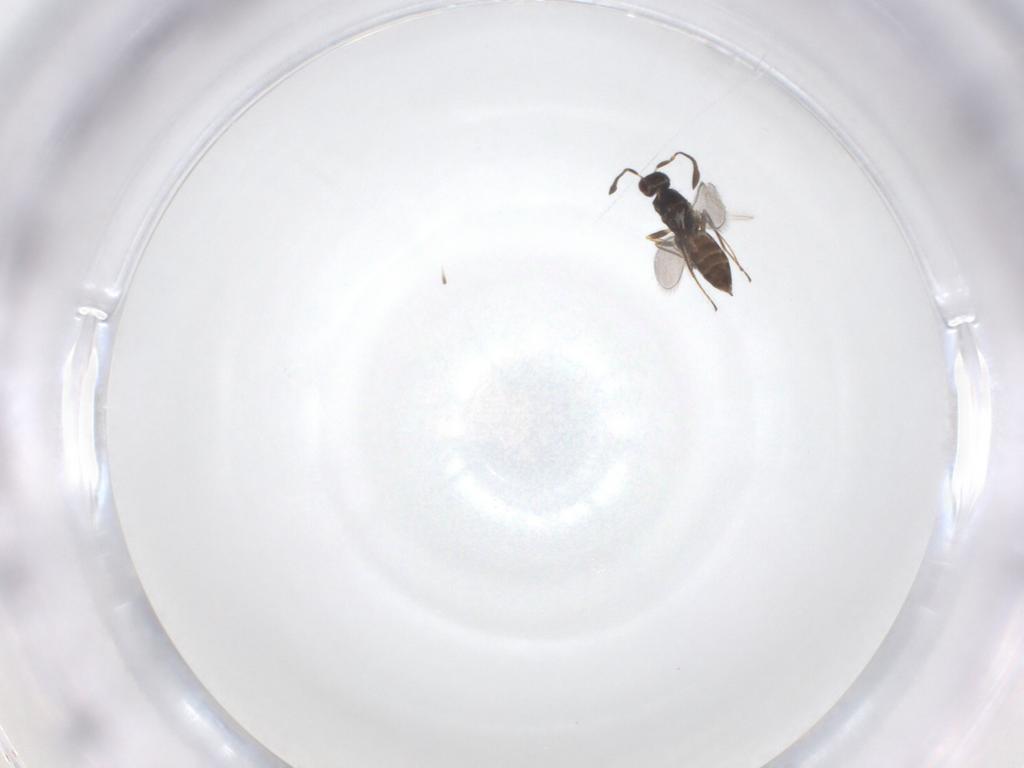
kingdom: Animalia
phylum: Arthropoda
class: Insecta
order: Hymenoptera
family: Mymaridae
